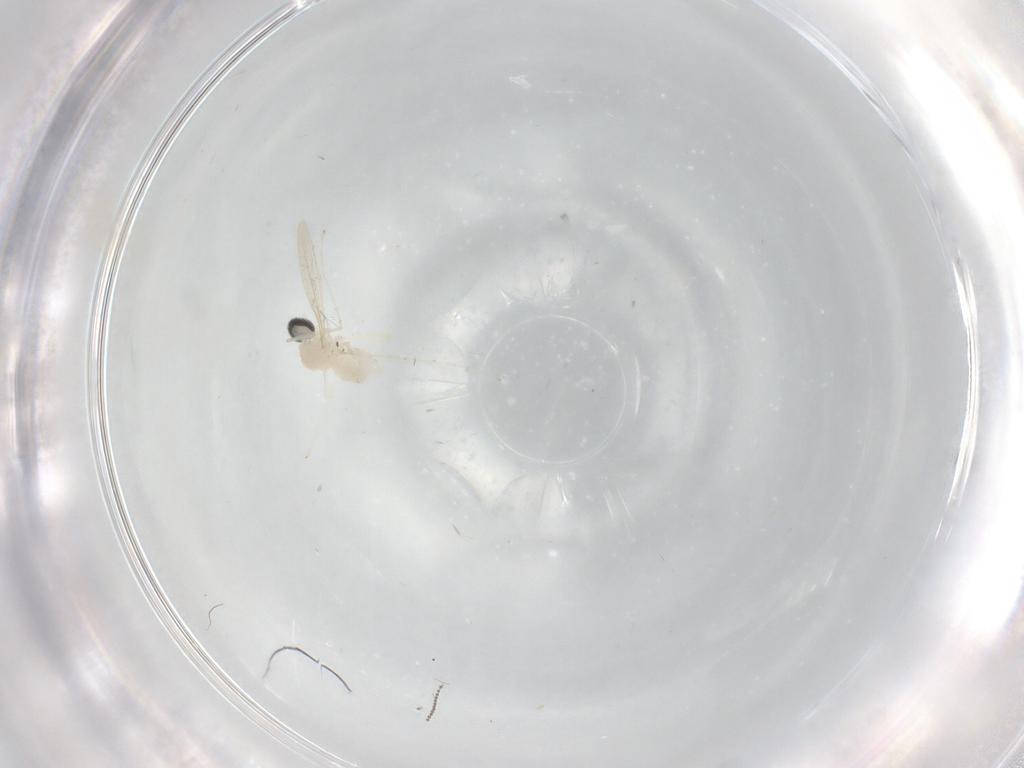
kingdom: Animalia
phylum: Arthropoda
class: Insecta
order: Diptera
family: Cecidomyiidae
